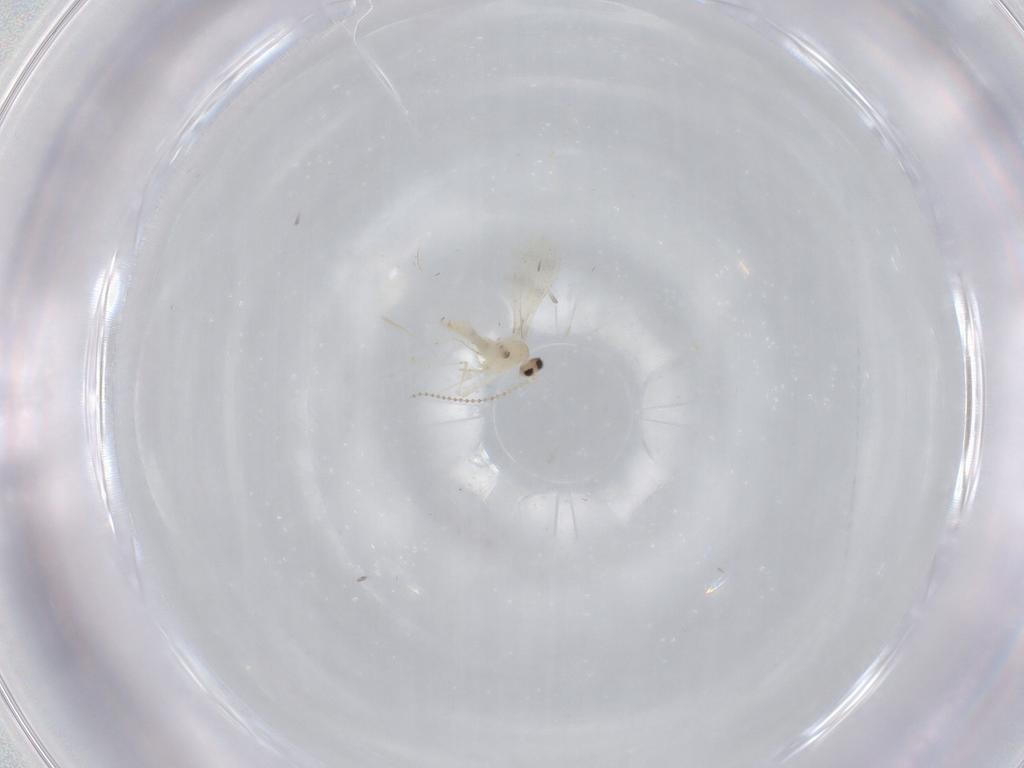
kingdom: Animalia
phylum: Arthropoda
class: Insecta
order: Diptera
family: Cecidomyiidae
